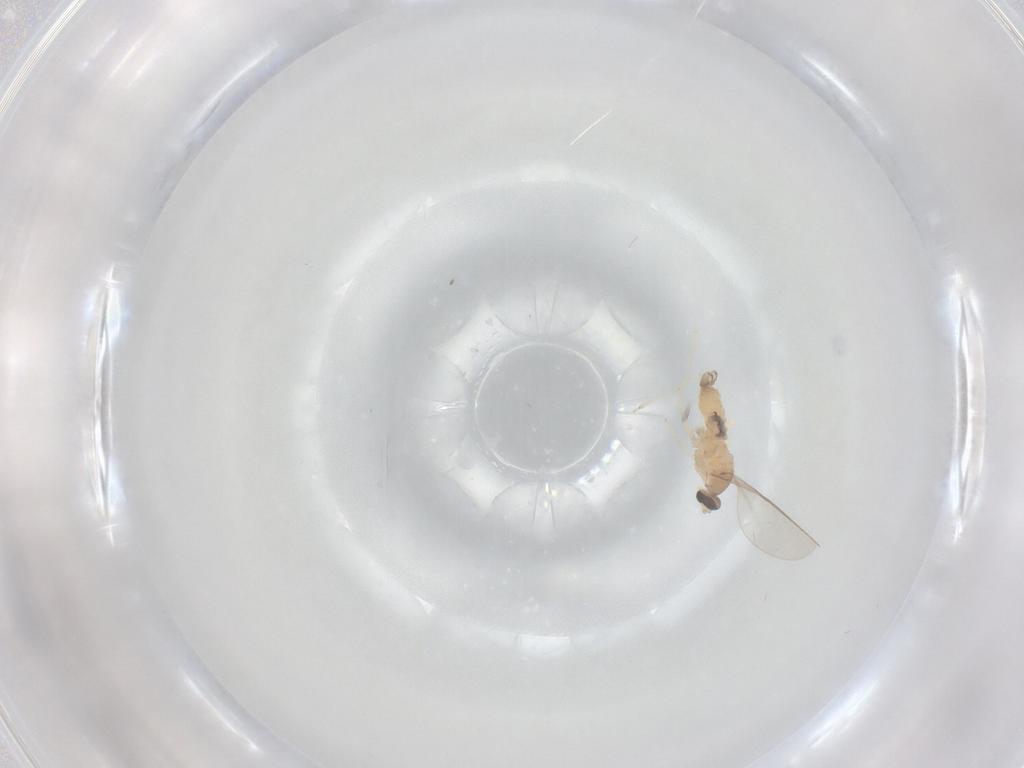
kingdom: Animalia
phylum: Arthropoda
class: Insecta
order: Diptera
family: Cecidomyiidae
